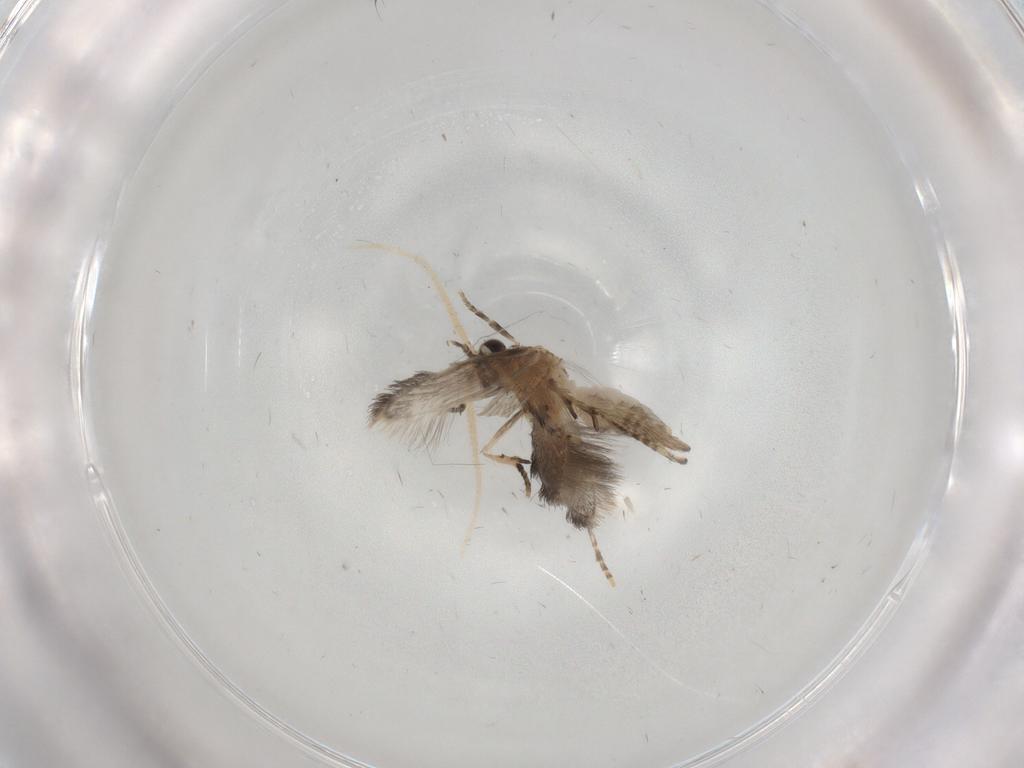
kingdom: Animalia
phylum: Arthropoda
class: Insecta
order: Trichoptera
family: Hydroptilidae
